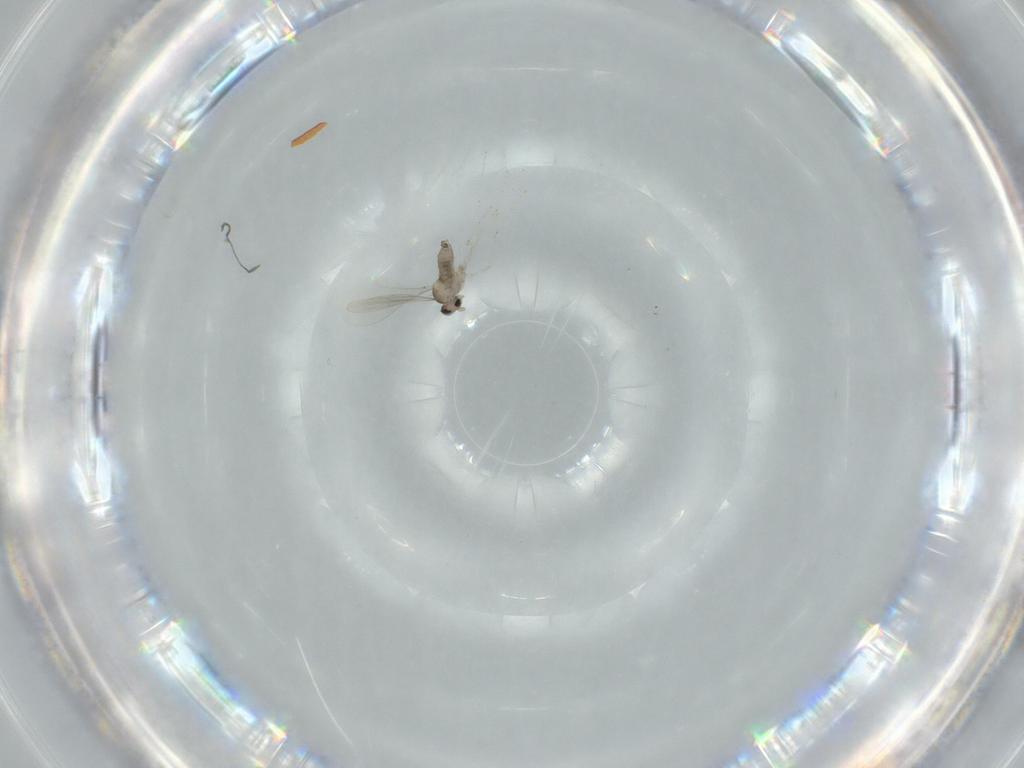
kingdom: Animalia
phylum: Arthropoda
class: Insecta
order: Diptera
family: Cecidomyiidae
